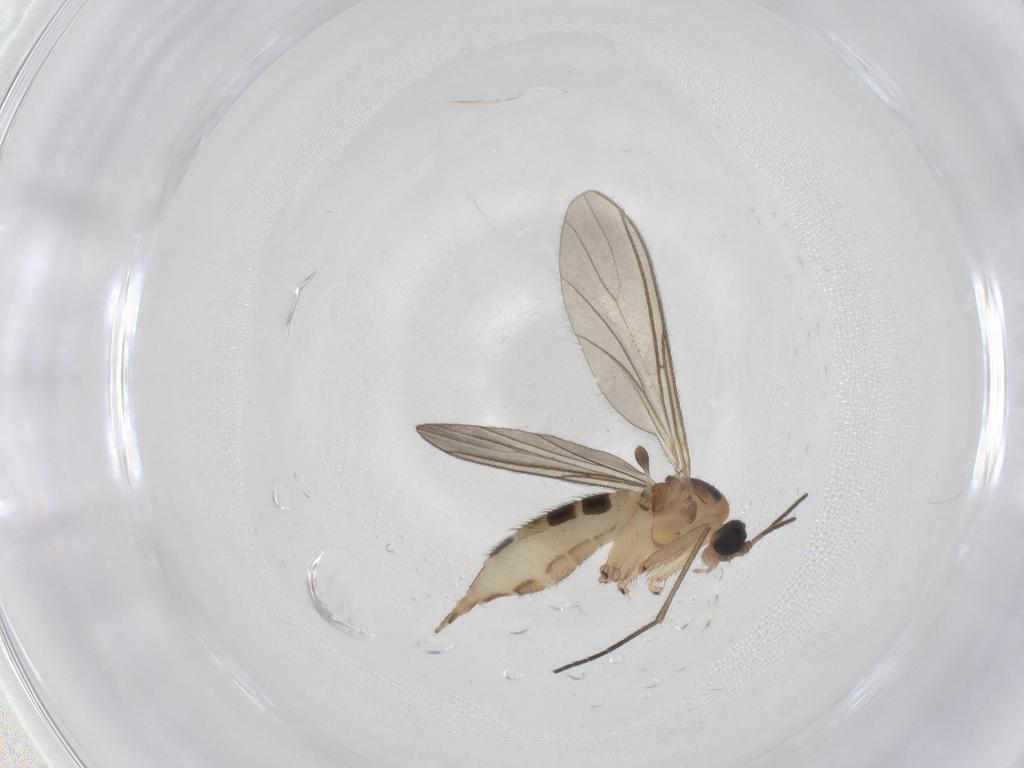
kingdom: Animalia
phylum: Arthropoda
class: Insecta
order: Diptera
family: Chironomidae
